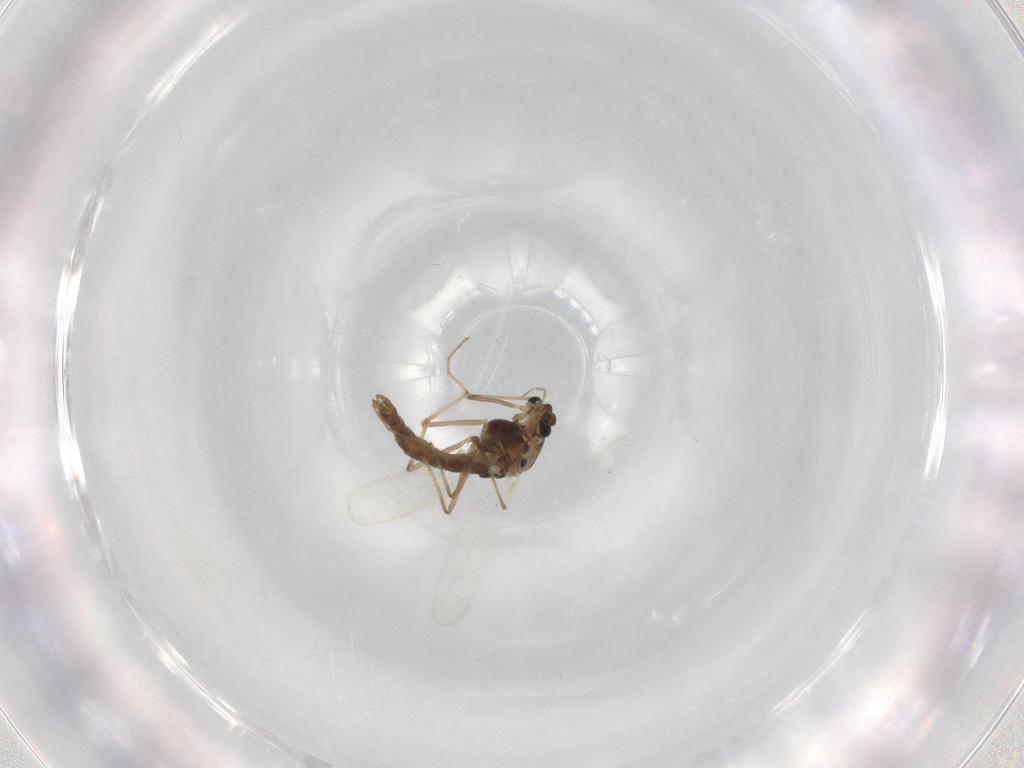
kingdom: Animalia
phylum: Arthropoda
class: Insecta
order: Diptera
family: Chironomidae
